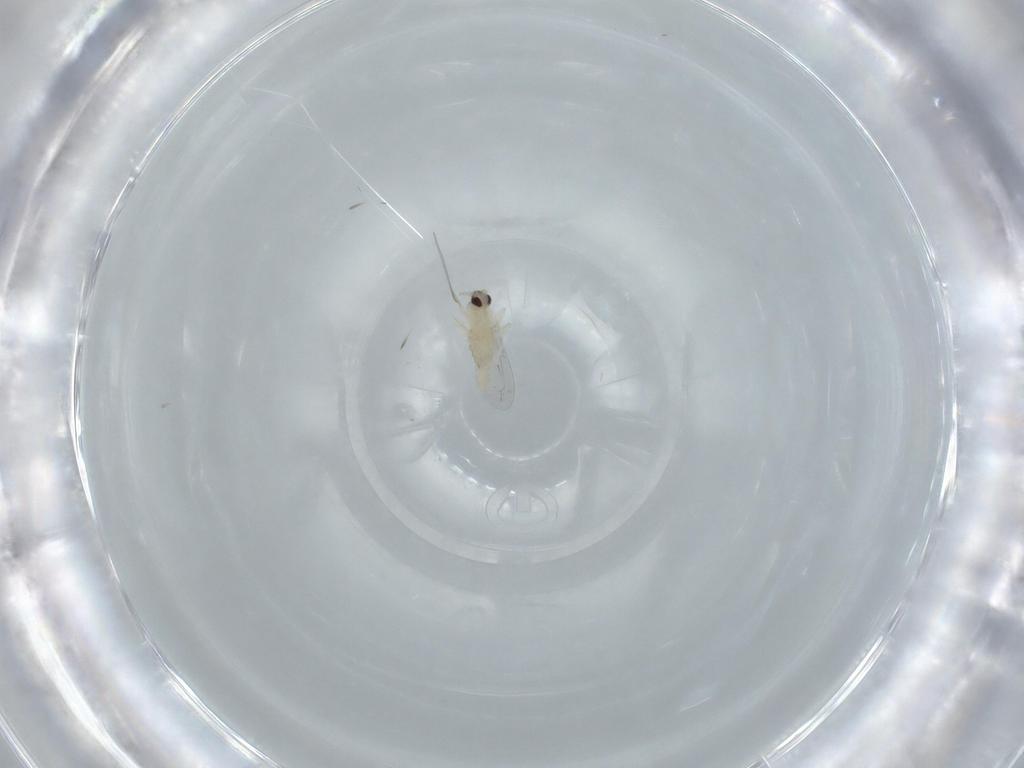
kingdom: Animalia
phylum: Arthropoda
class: Insecta
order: Diptera
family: Cecidomyiidae
